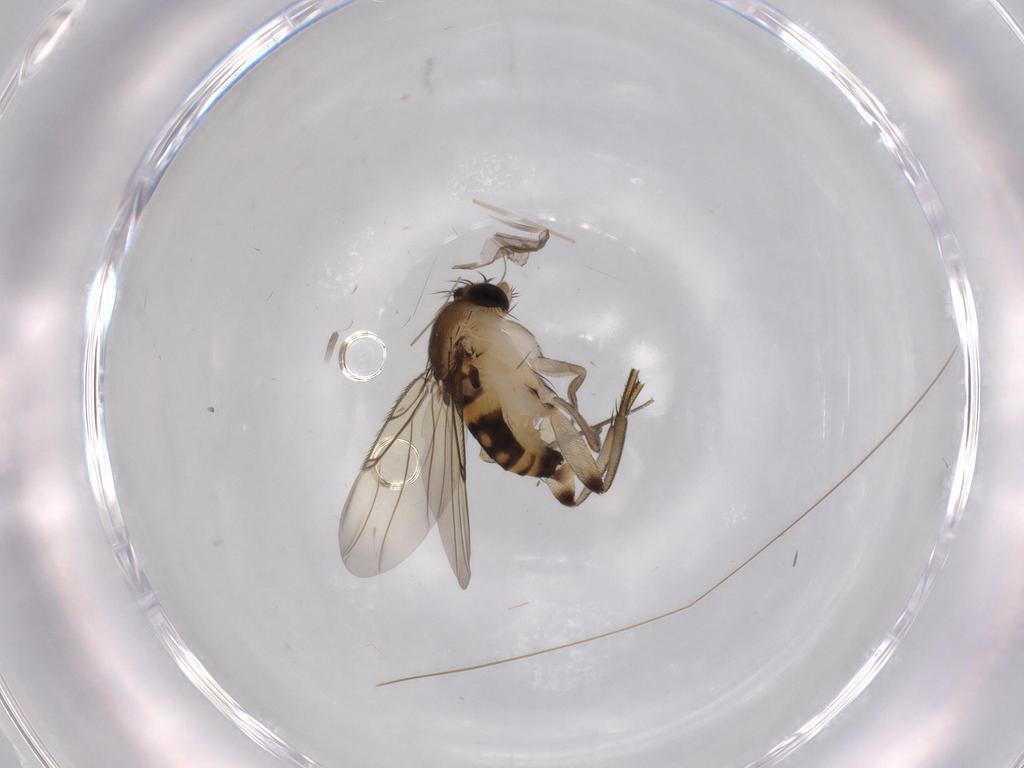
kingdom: Animalia
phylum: Arthropoda
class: Insecta
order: Diptera
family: Phoridae
